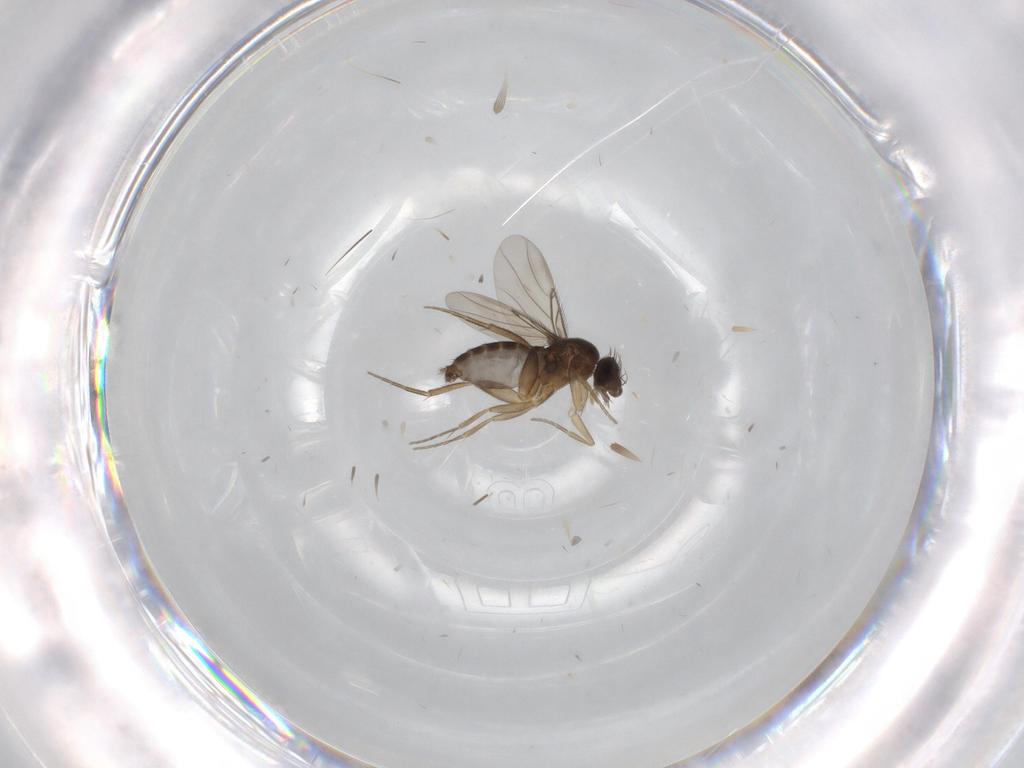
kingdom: Animalia
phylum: Arthropoda
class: Insecta
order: Diptera
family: Phoridae
